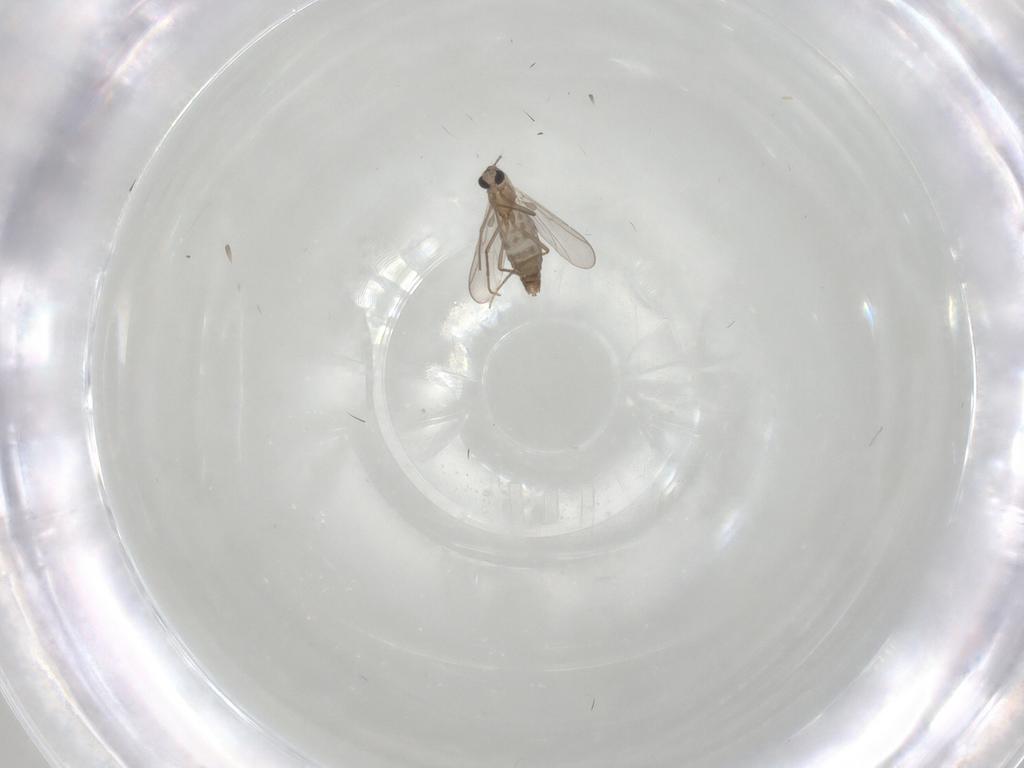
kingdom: Animalia
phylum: Arthropoda
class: Insecta
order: Diptera
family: Chironomidae
